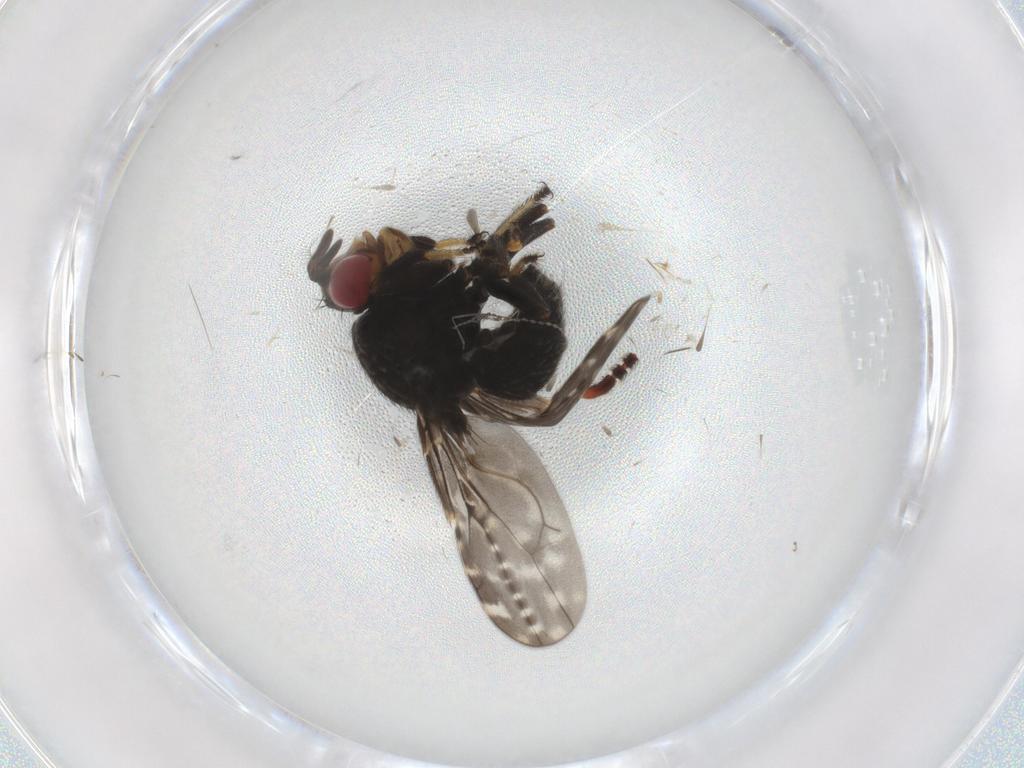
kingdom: Animalia
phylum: Arthropoda
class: Insecta
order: Diptera
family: Ephydridae
